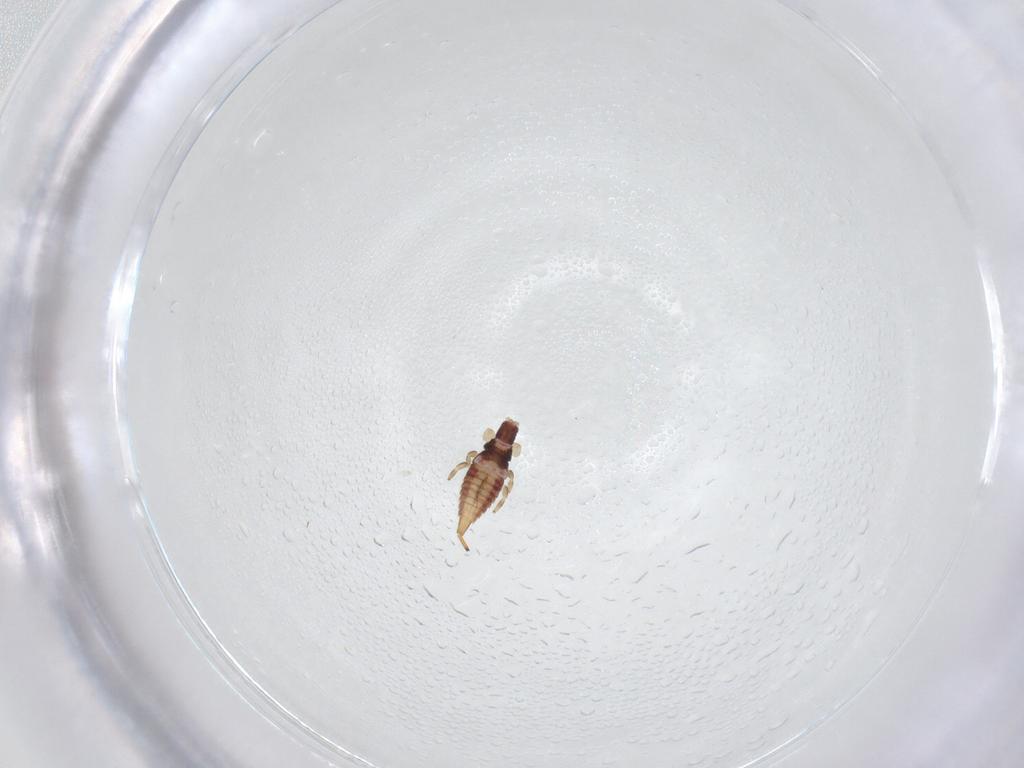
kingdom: Animalia
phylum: Arthropoda
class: Insecta
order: Thysanoptera
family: Phlaeothripidae
